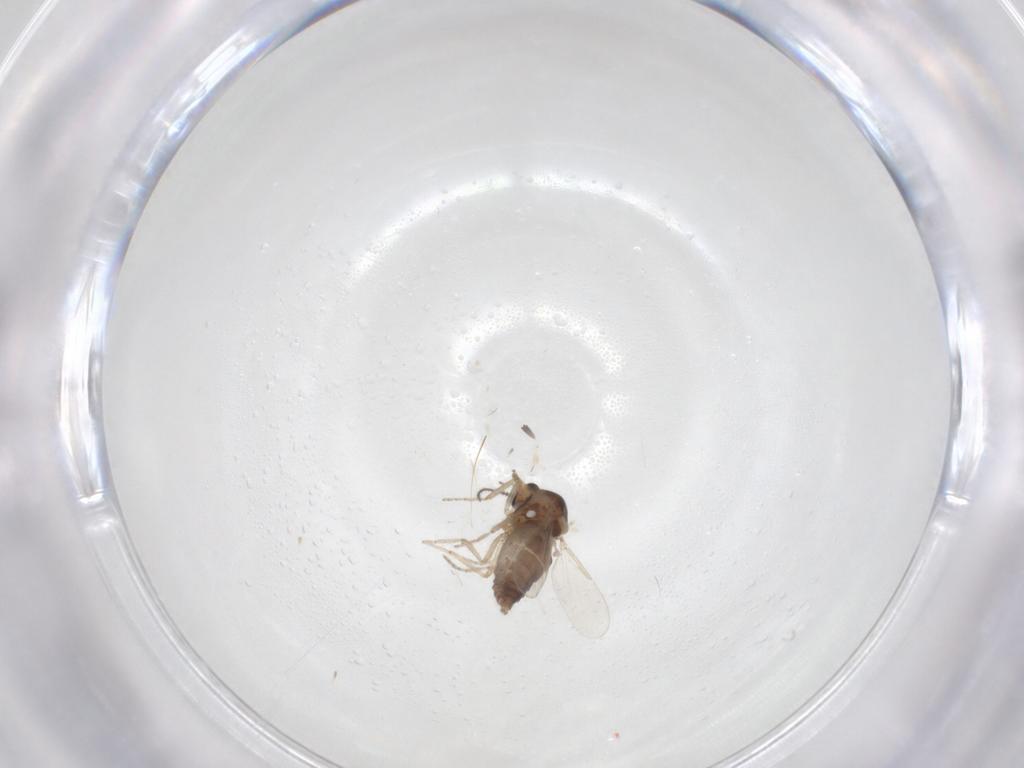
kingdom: Animalia
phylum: Arthropoda
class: Insecta
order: Diptera
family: Ceratopogonidae
